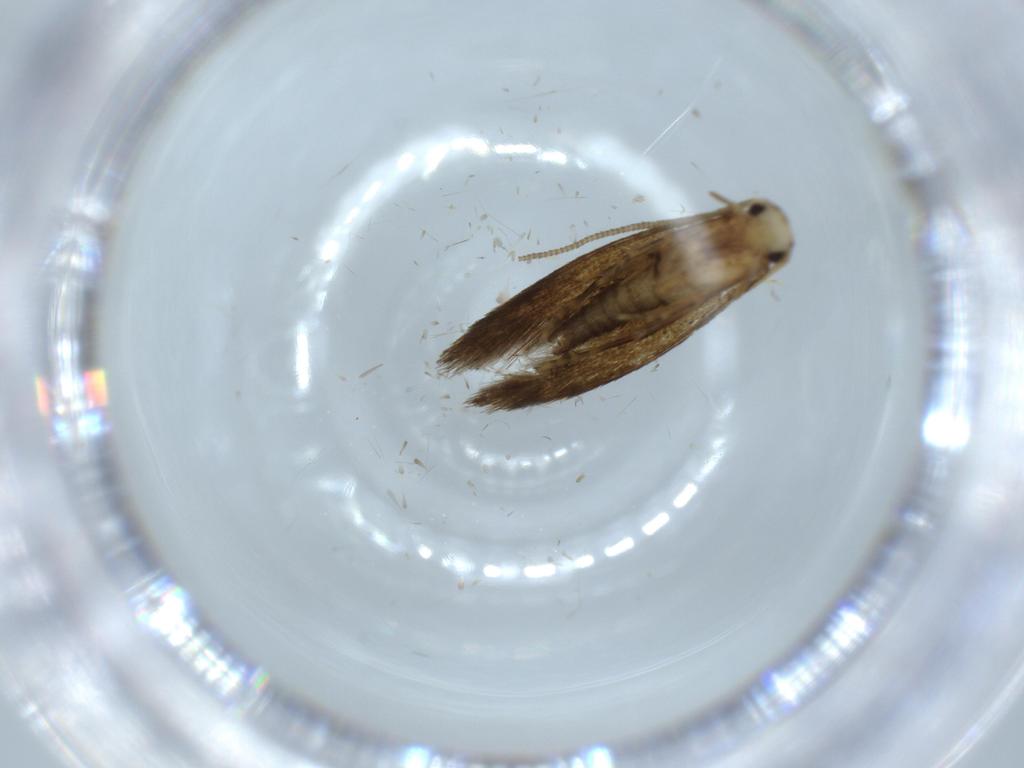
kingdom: Animalia
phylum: Arthropoda
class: Insecta
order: Lepidoptera
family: Tineidae
